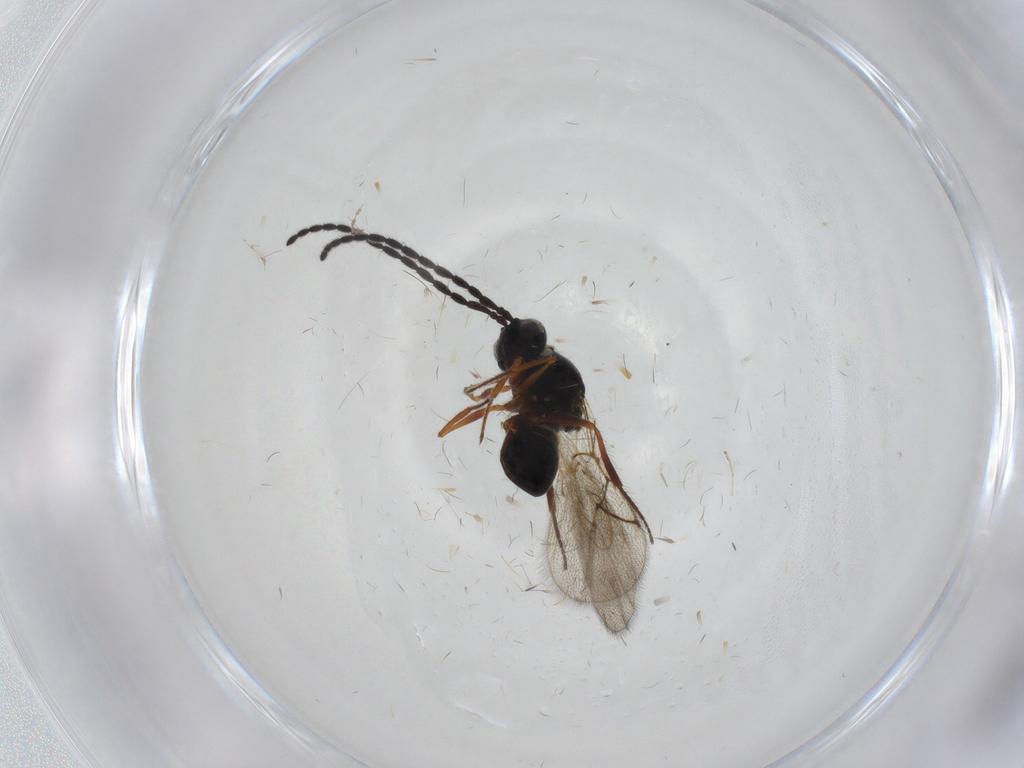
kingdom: Animalia
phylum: Arthropoda
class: Insecta
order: Hymenoptera
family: Figitidae
